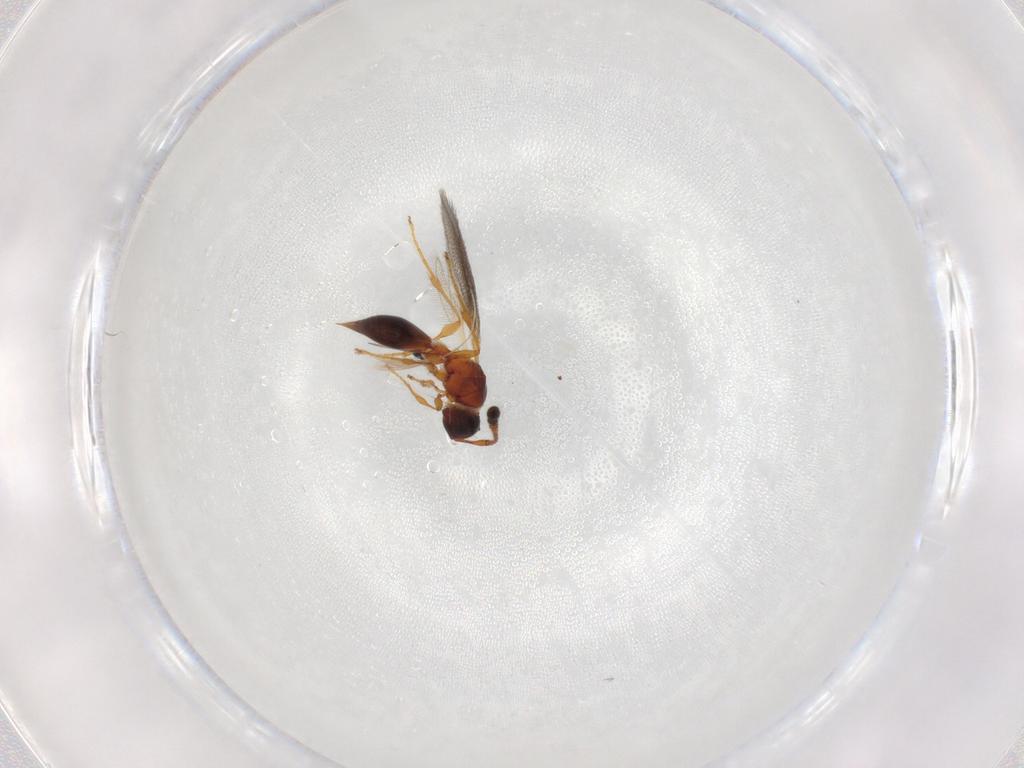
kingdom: Animalia
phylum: Arthropoda
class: Insecta
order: Hymenoptera
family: Diapriidae
